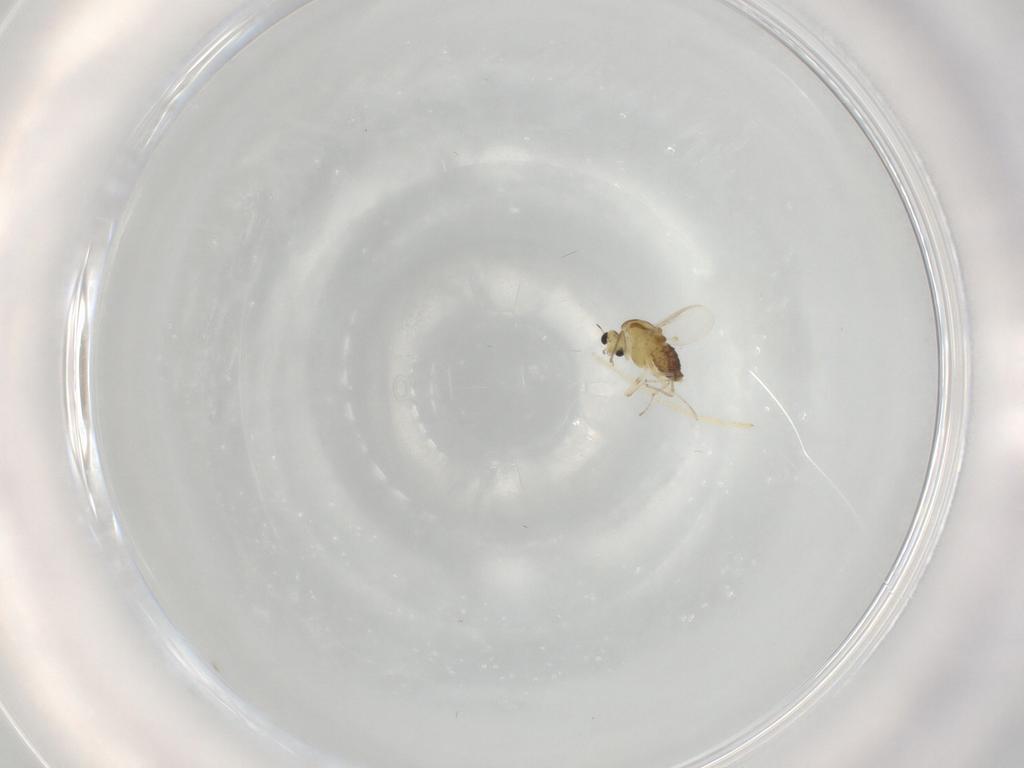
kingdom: Animalia
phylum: Arthropoda
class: Insecta
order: Diptera
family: Chironomidae
